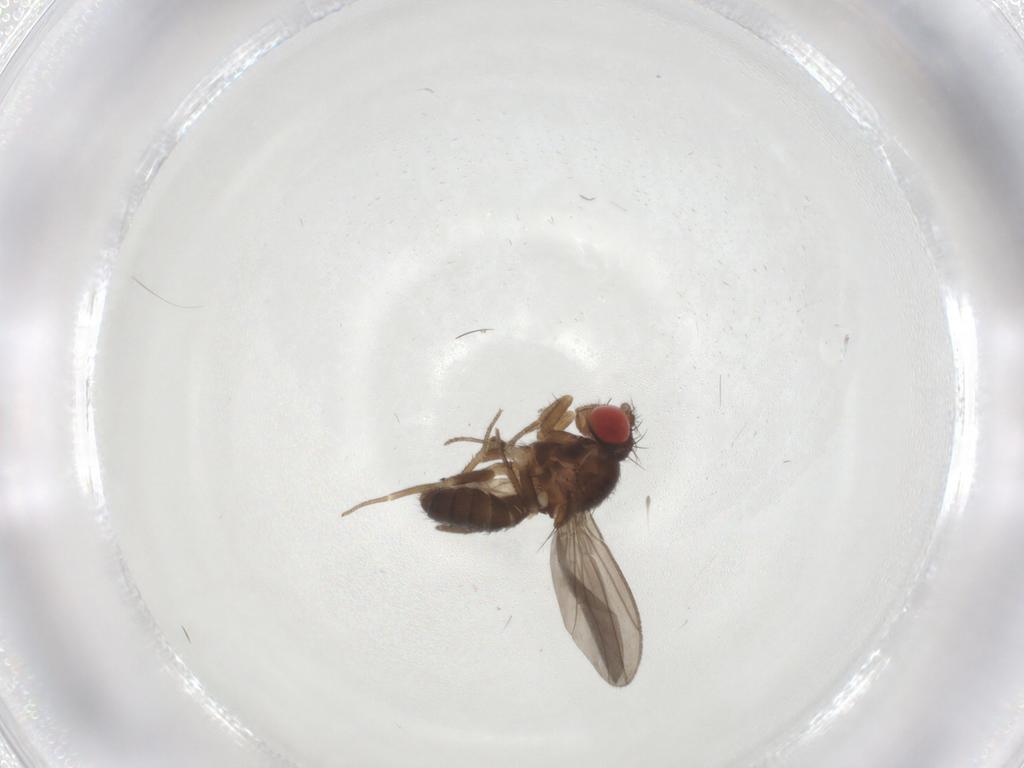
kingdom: Animalia
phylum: Arthropoda
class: Insecta
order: Diptera
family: Drosophilidae
